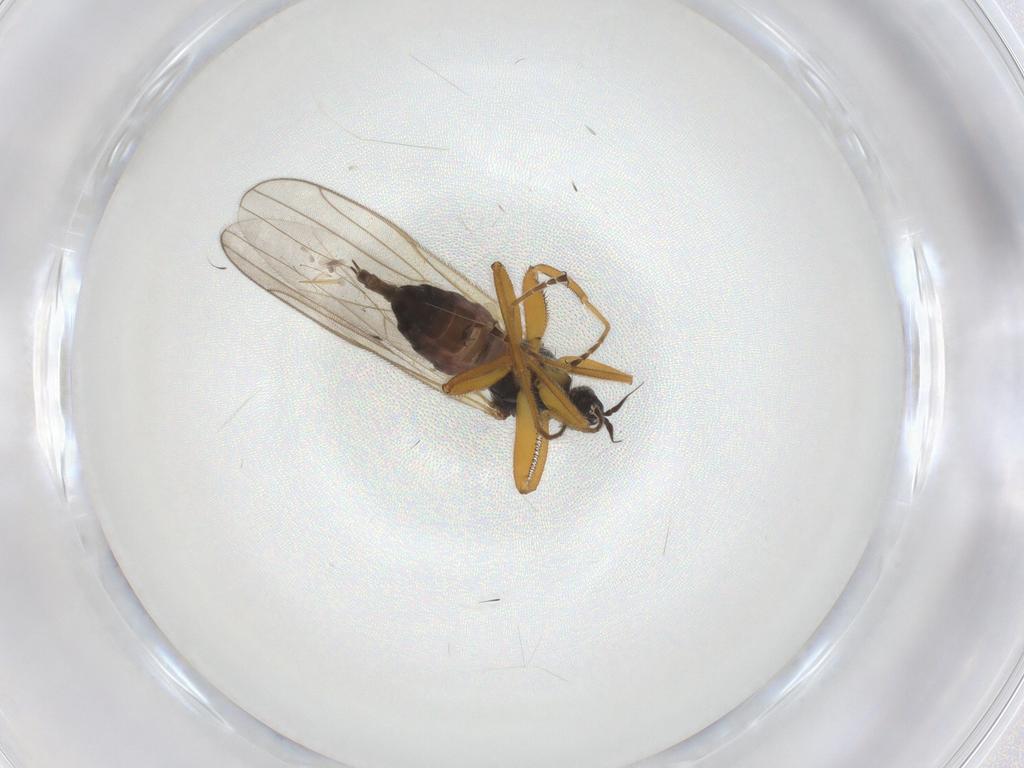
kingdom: Animalia
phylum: Arthropoda
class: Insecta
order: Diptera
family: Hybotidae
